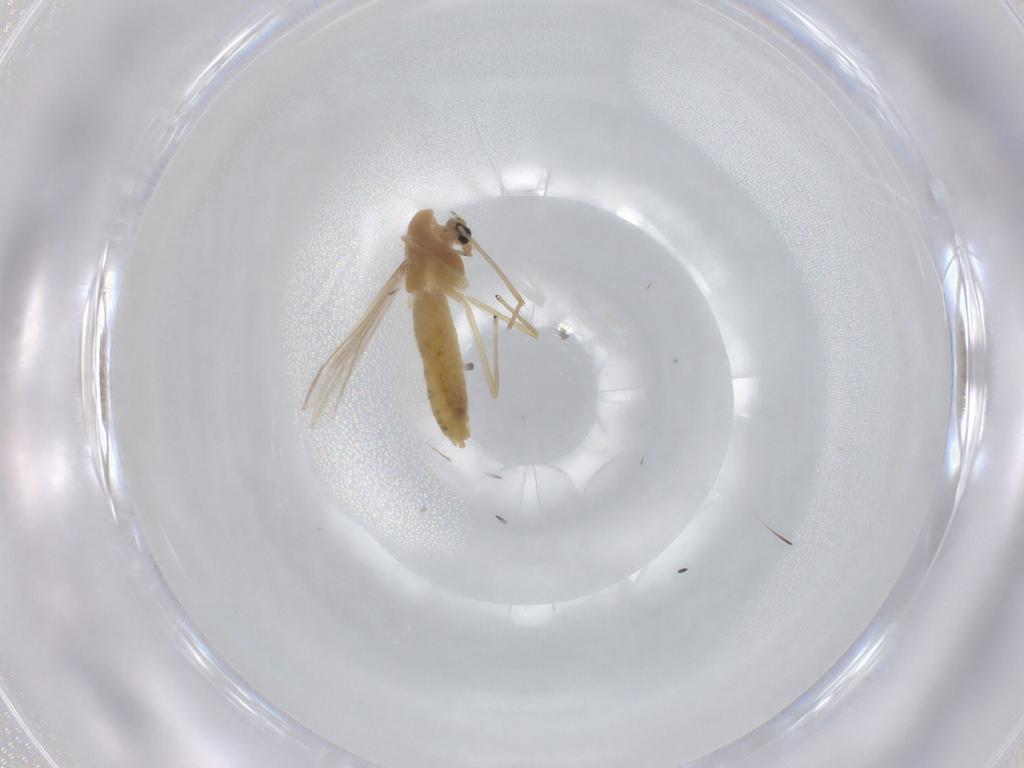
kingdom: Animalia
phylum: Arthropoda
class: Insecta
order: Diptera
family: Chironomidae
